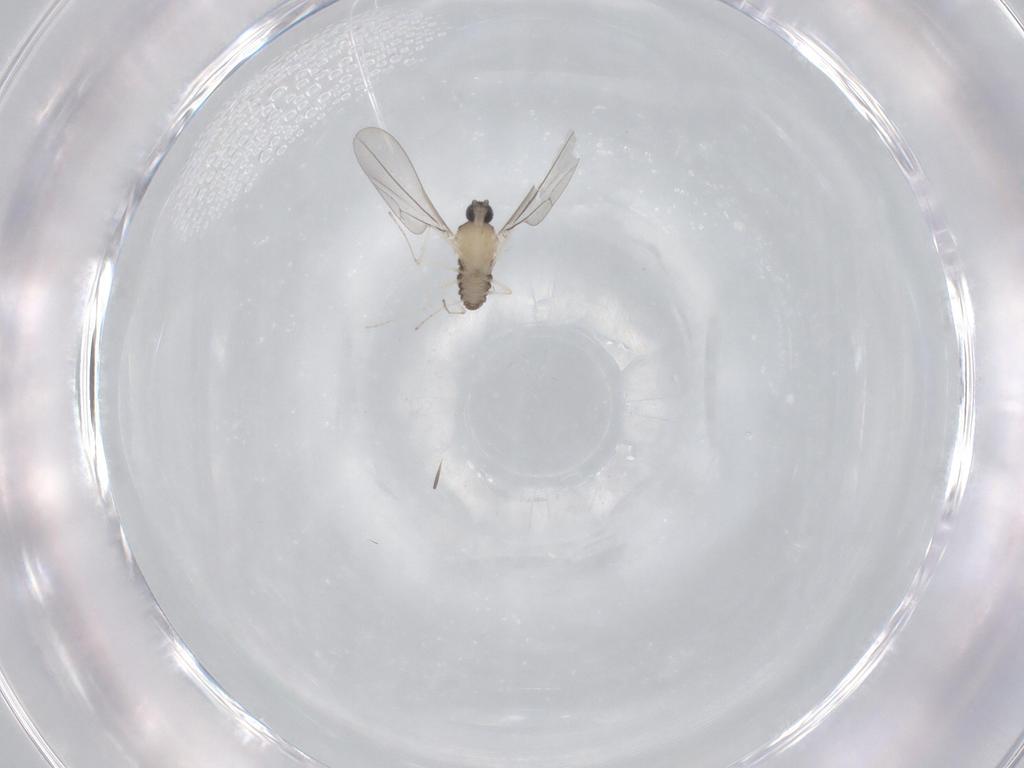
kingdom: Animalia
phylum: Arthropoda
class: Insecta
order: Diptera
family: Cecidomyiidae
